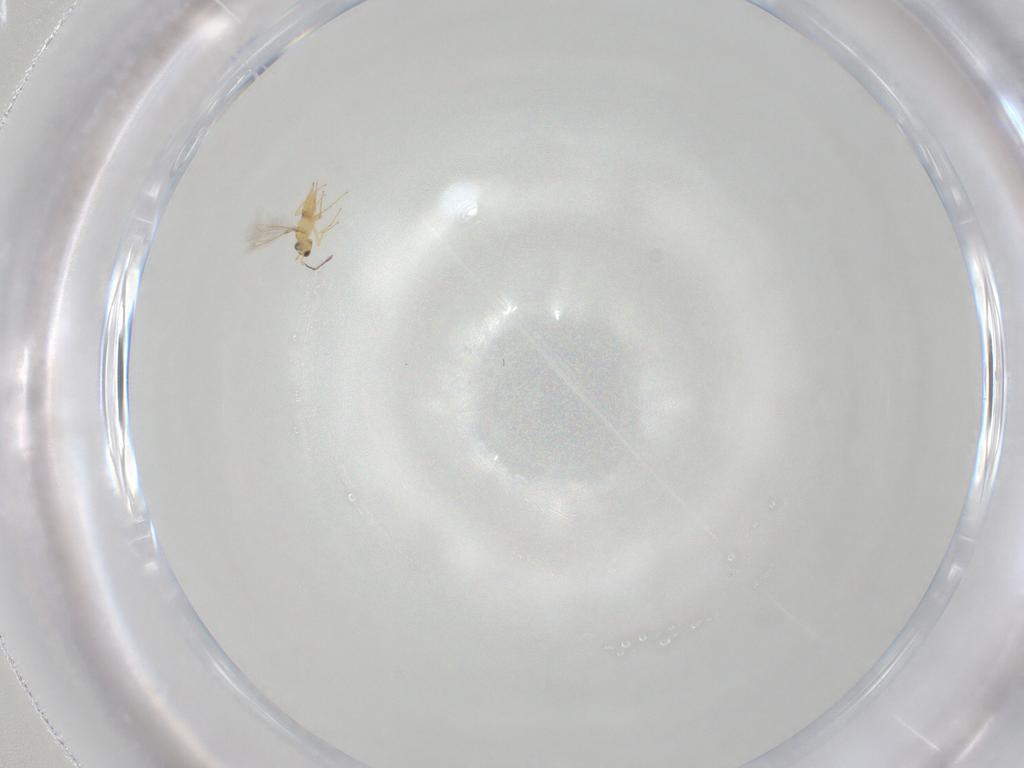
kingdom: Animalia
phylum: Arthropoda
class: Insecta
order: Hymenoptera
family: Mymaridae
